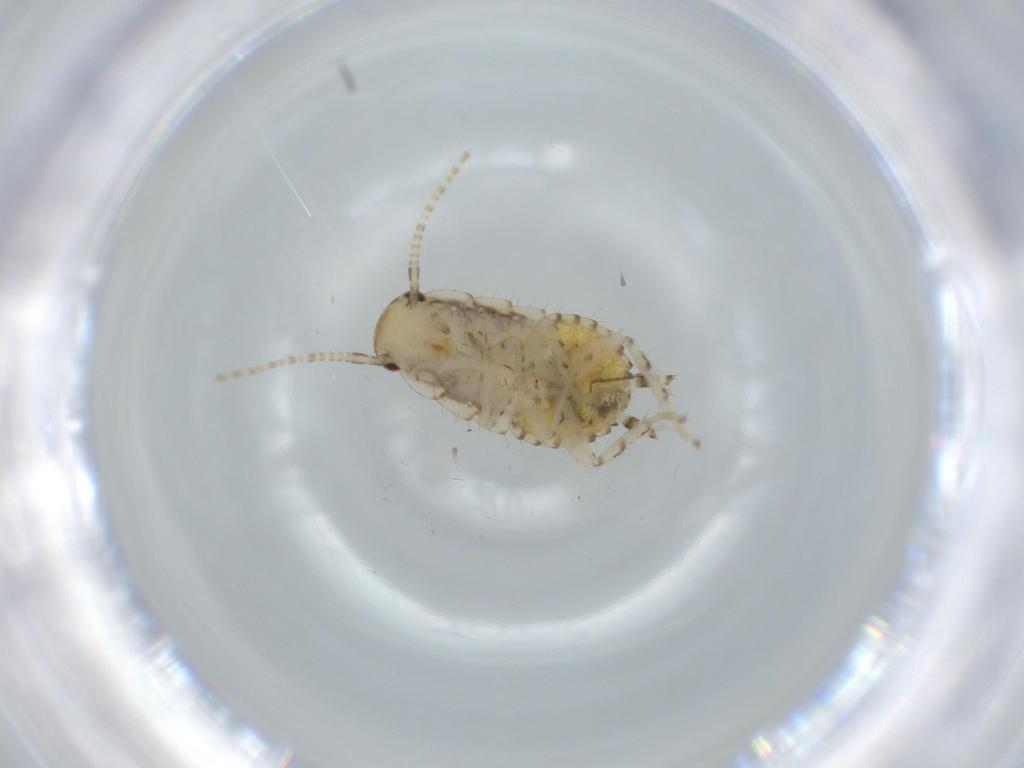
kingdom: Animalia
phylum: Arthropoda
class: Insecta
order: Blattodea
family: Ectobiidae
